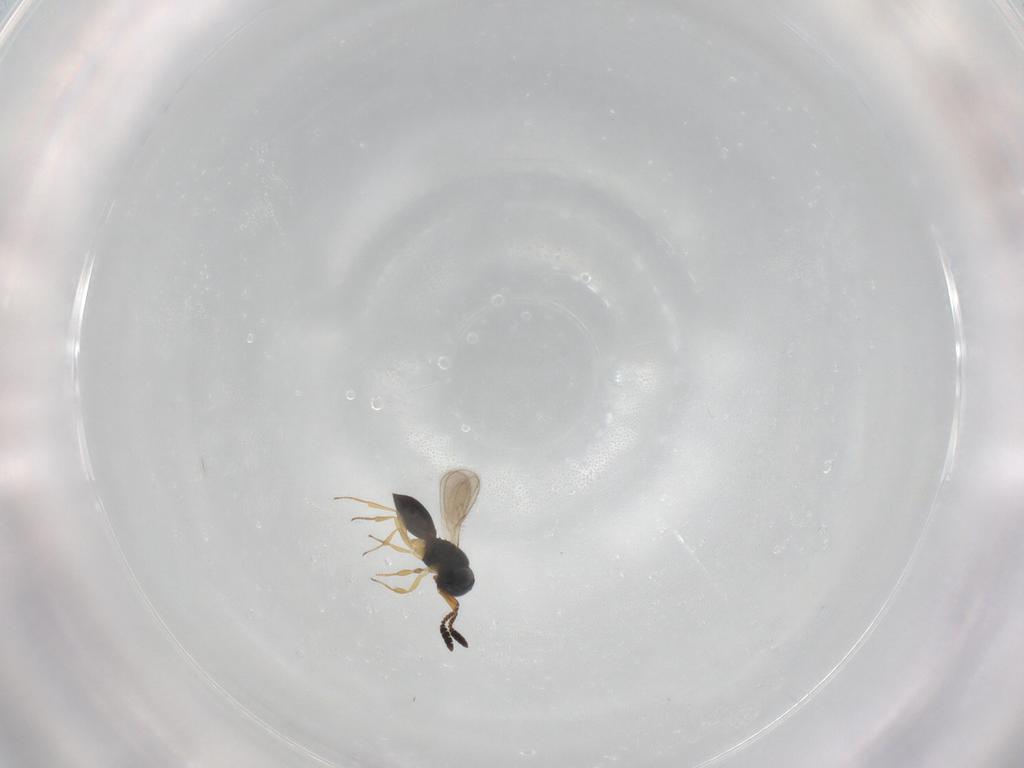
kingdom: Animalia
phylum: Arthropoda
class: Insecta
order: Hymenoptera
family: Scelionidae
